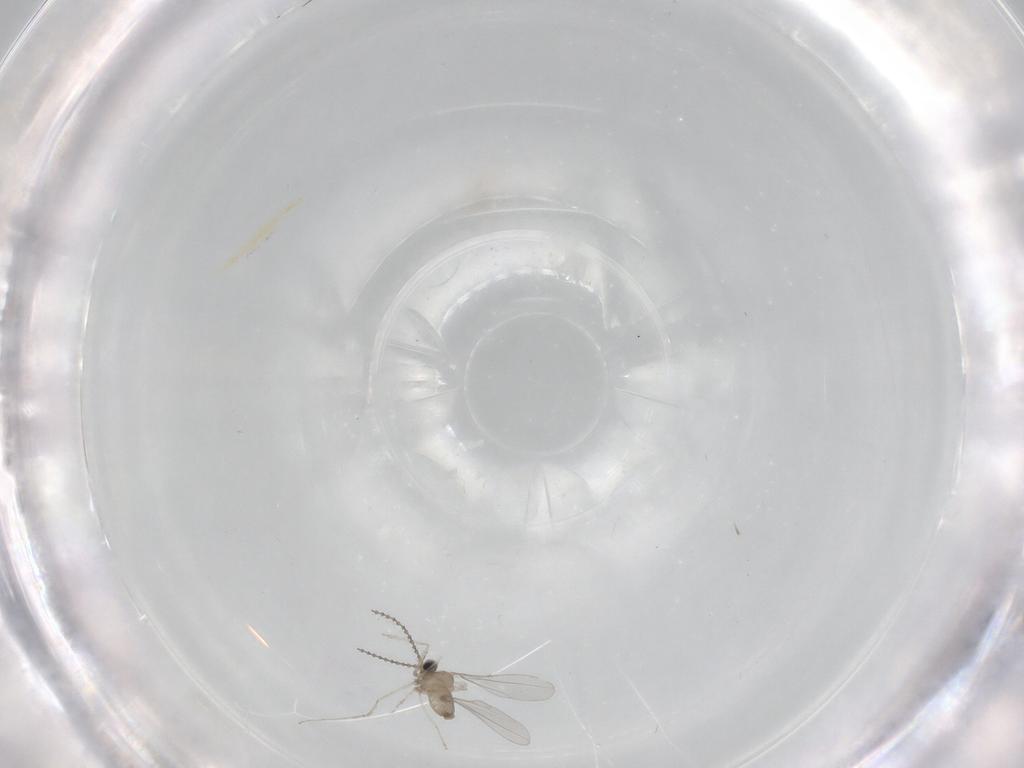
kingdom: Animalia
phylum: Arthropoda
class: Insecta
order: Diptera
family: Cecidomyiidae
